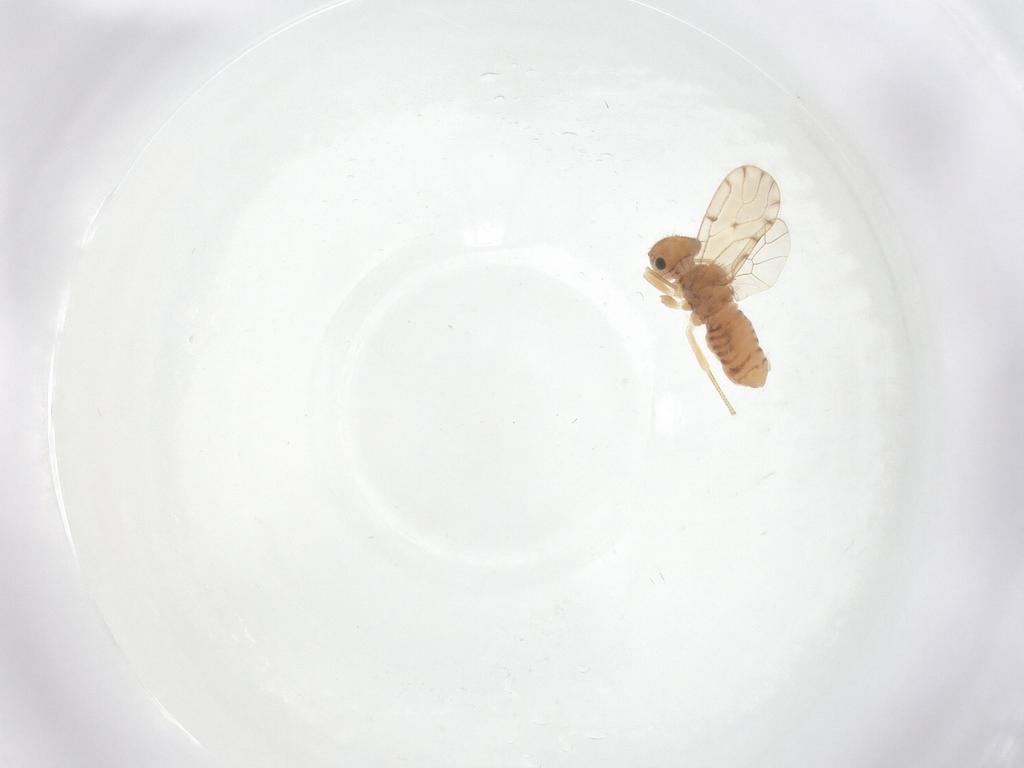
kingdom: Animalia
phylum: Arthropoda
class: Insecta
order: Psocodea
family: Ectopsocidae
